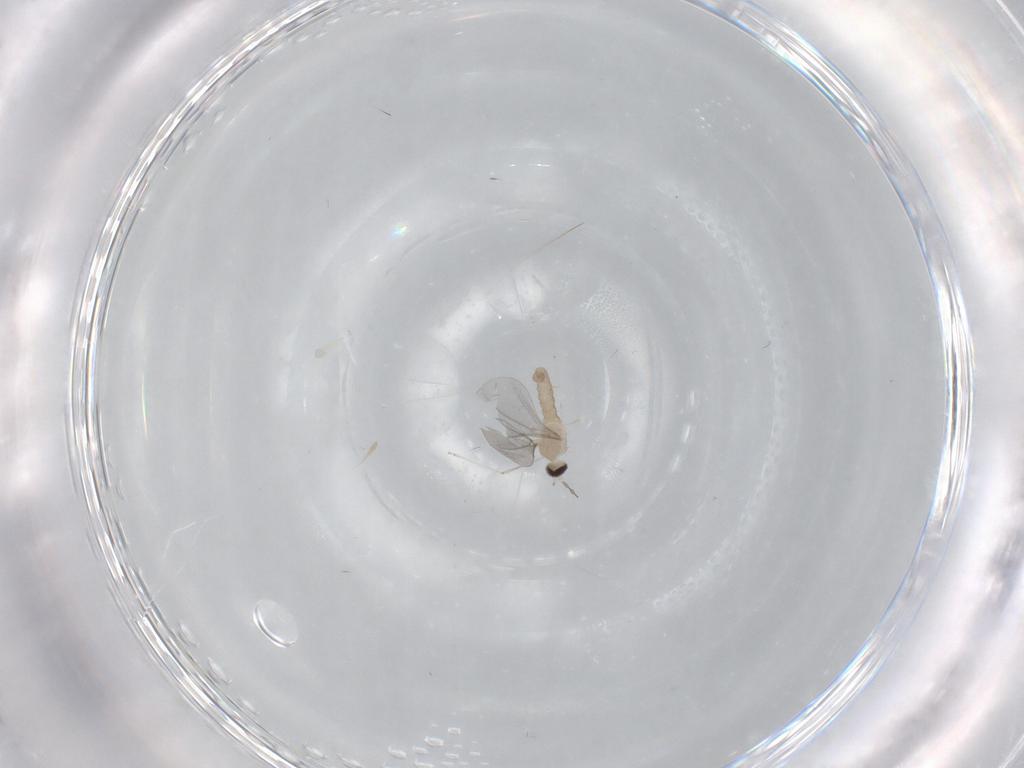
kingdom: Animalia
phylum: Arthropoda
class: Insecta
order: Diptera
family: Cecidomyiidae
